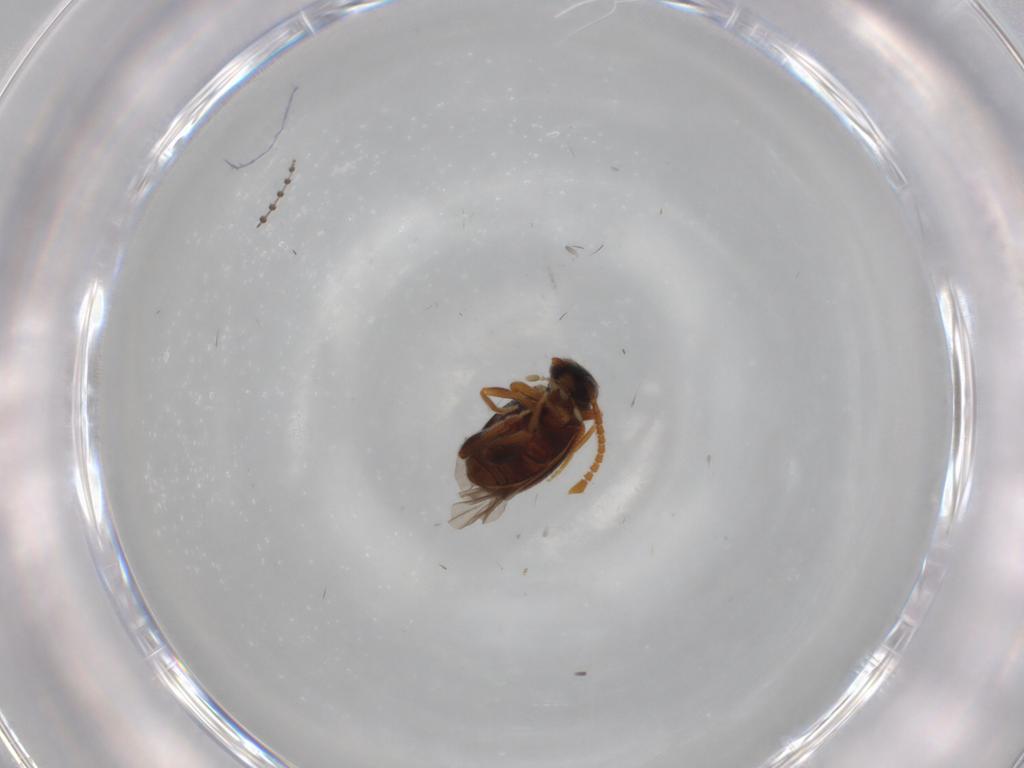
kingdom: Animalia
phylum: Arthropoda
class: Insecta
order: Coleoptera
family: Aderidae
